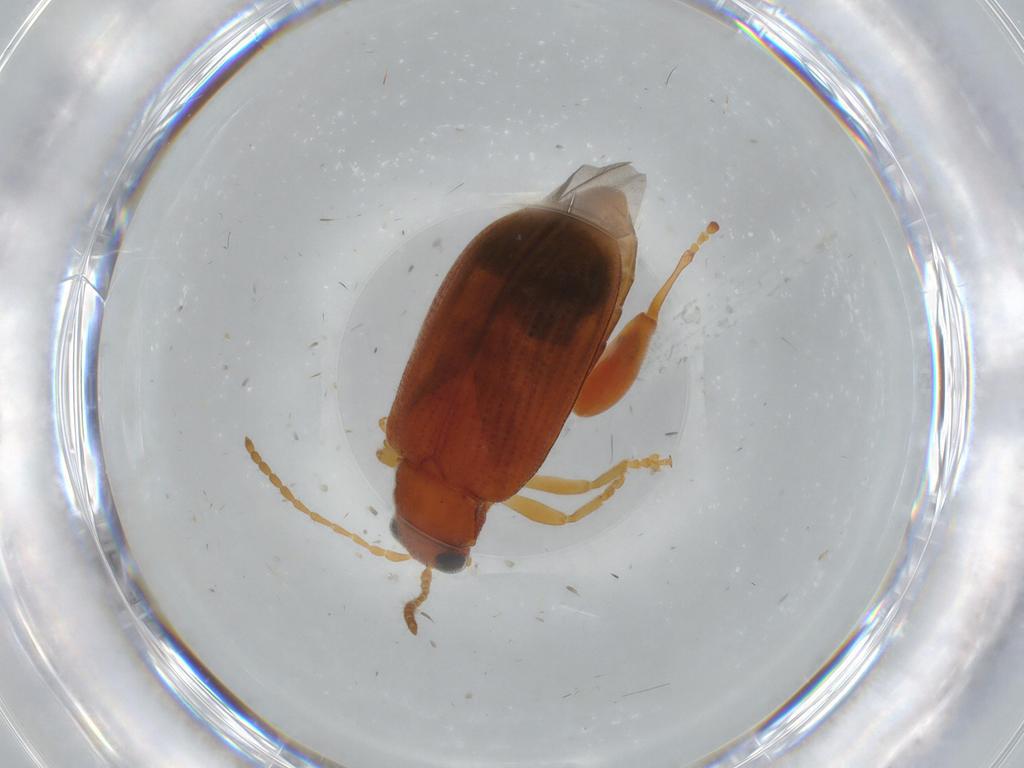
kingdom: Animalia
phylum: Arthropoda
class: Insecta
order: Coleoptera
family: Chrysomelidae
